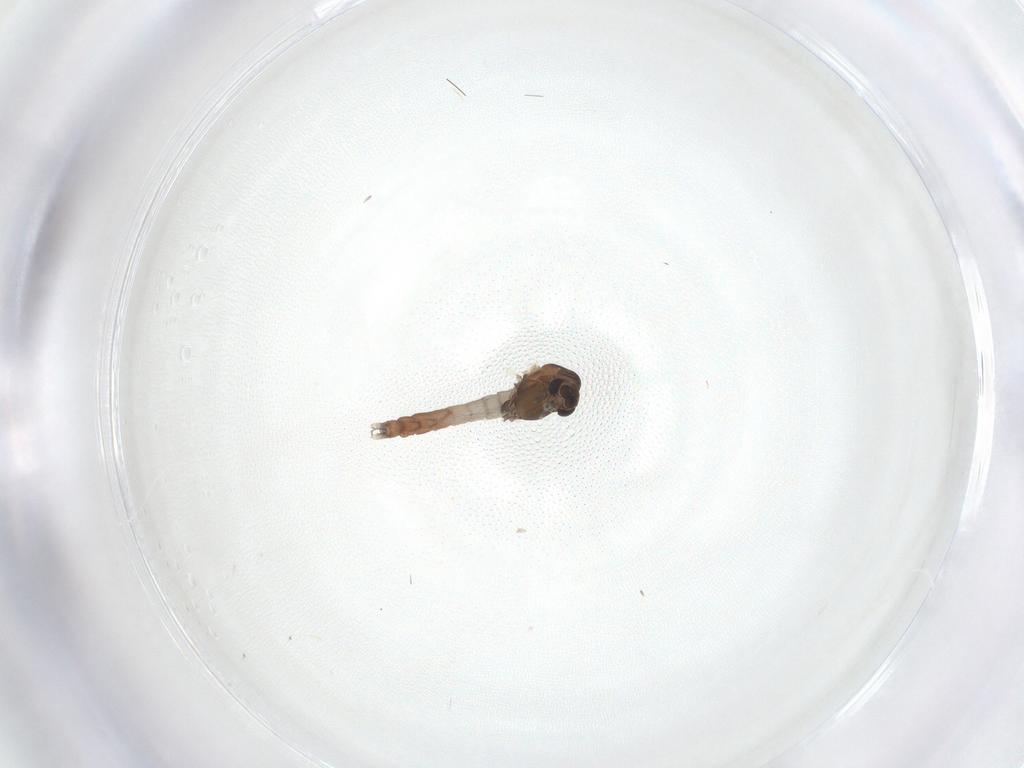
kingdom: Animalia
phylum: Arthropoda
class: Insecta
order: Diptera
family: Chironomidae
